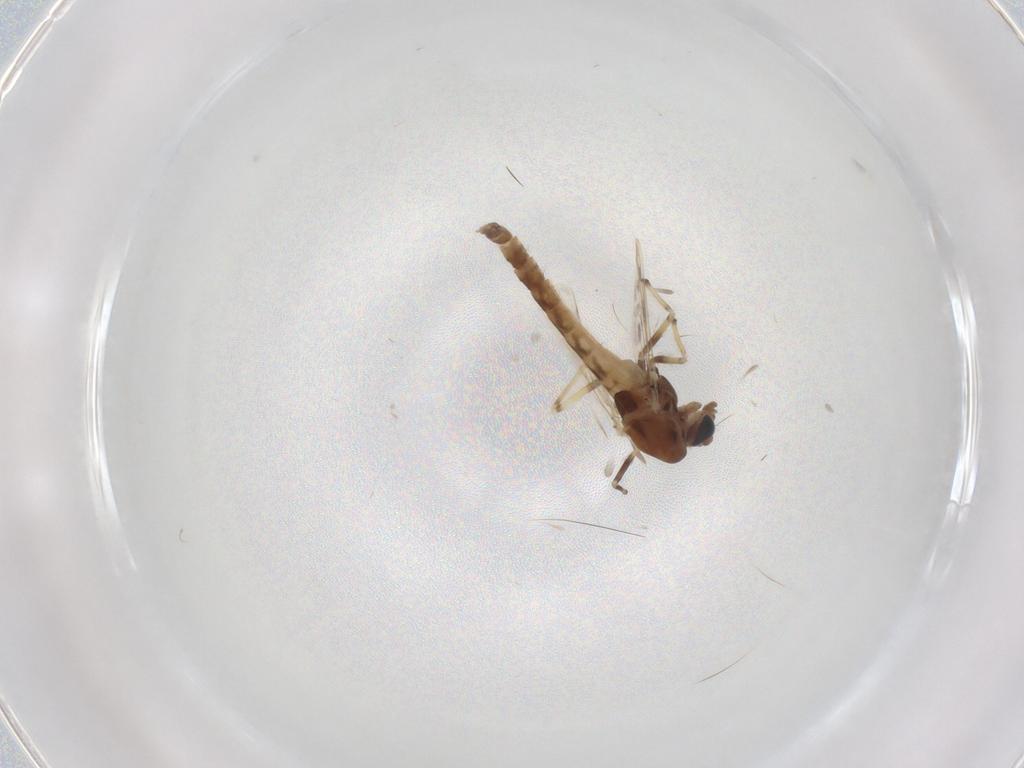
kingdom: Animalia
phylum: Arthropoda
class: Insecta
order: Diptera
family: Chironomidae
